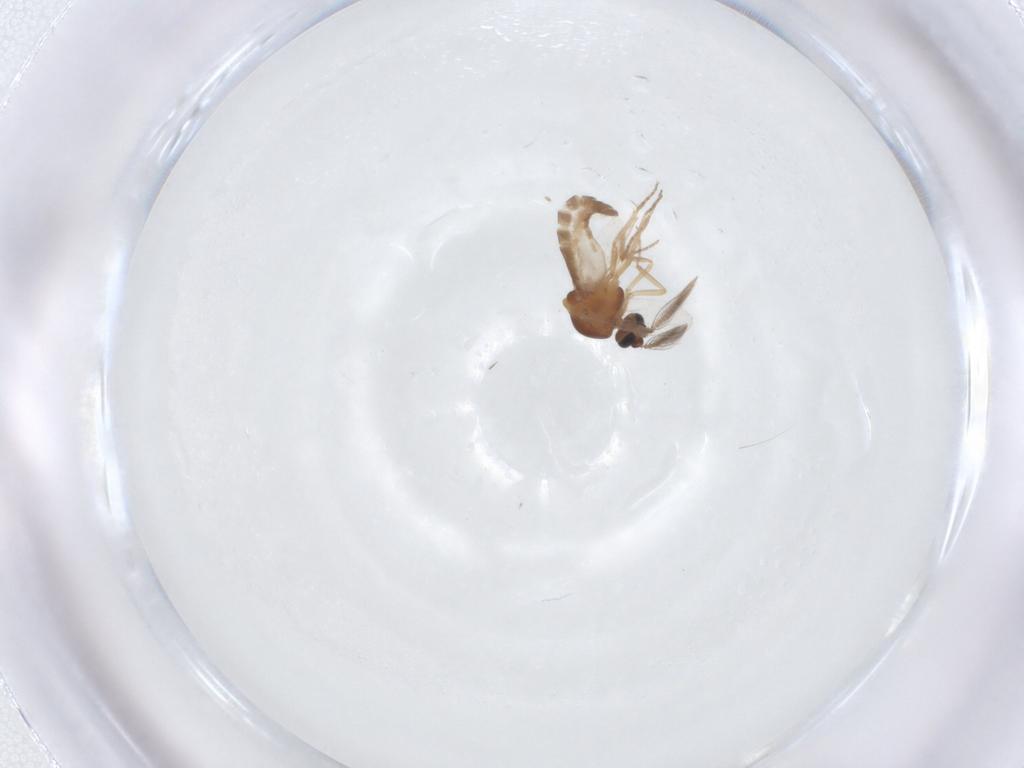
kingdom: Animalia
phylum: Arthropoda
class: Insecta
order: Diptera
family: Ceratopogonidae
